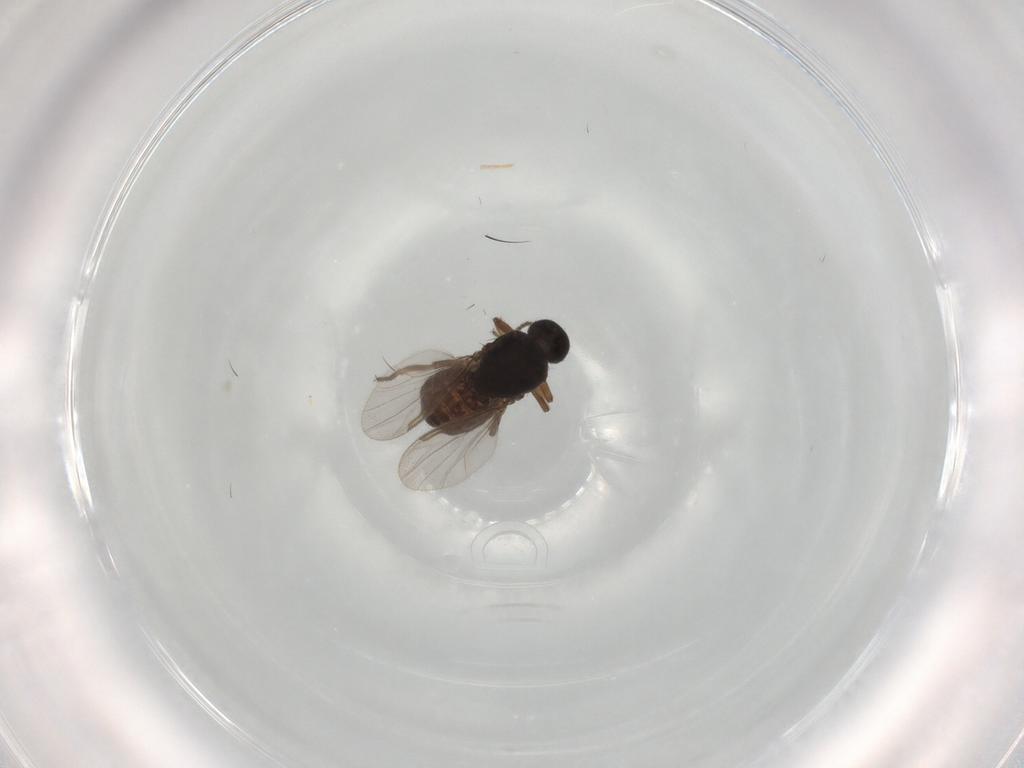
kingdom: Animalia
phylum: Arthropoda
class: Insecta
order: Diptera
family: Ceratopogonidae
